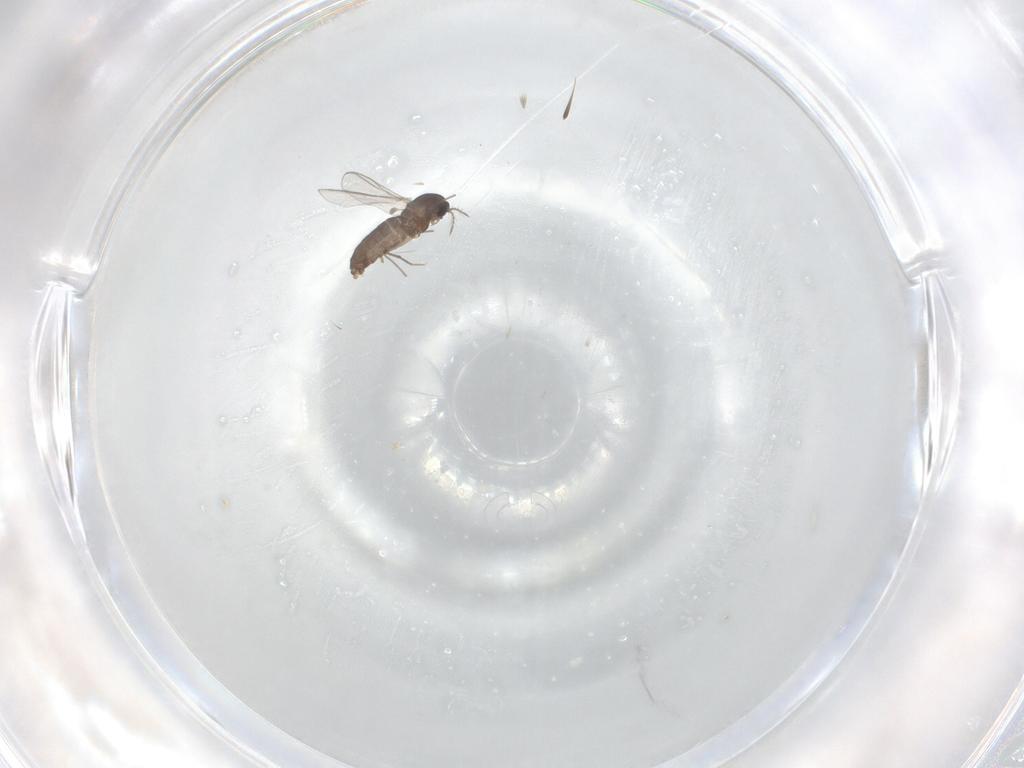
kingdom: Animalia
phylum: Arthropoda
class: Insecta
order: Diptera
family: Chironomidae
